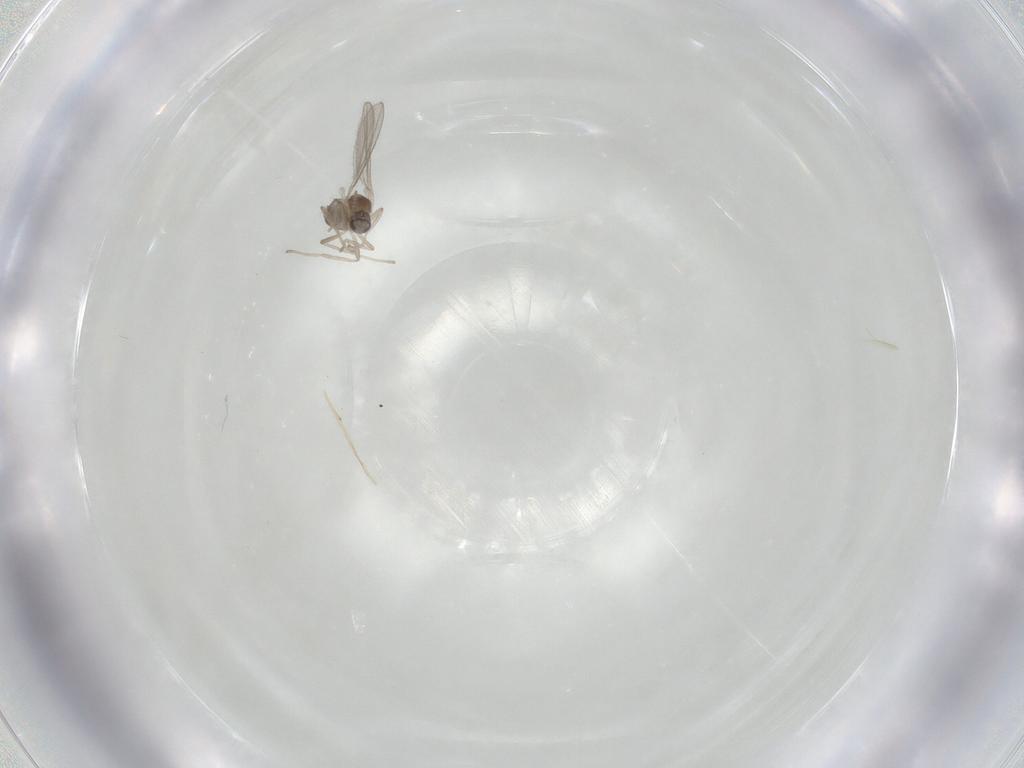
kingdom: Animalia
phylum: Arthropoda
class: Insecta
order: Diptera
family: Cecidomyiidae
